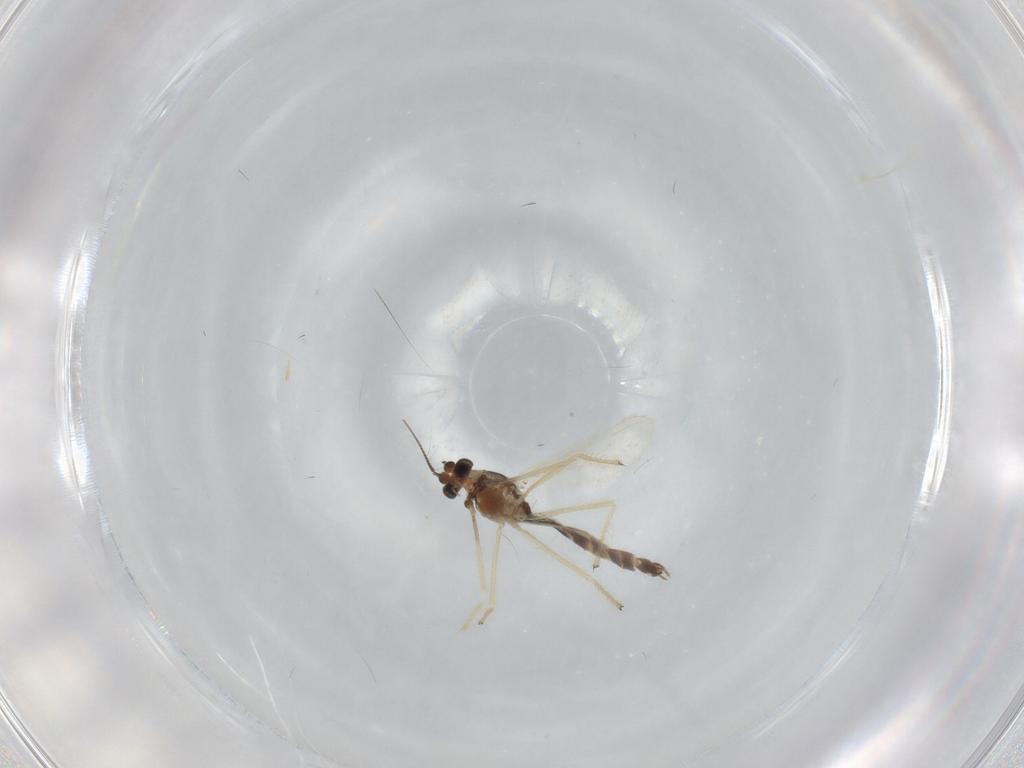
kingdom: Animalia
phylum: Arthropoda
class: Insecta
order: Diptera
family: Chironomidae
